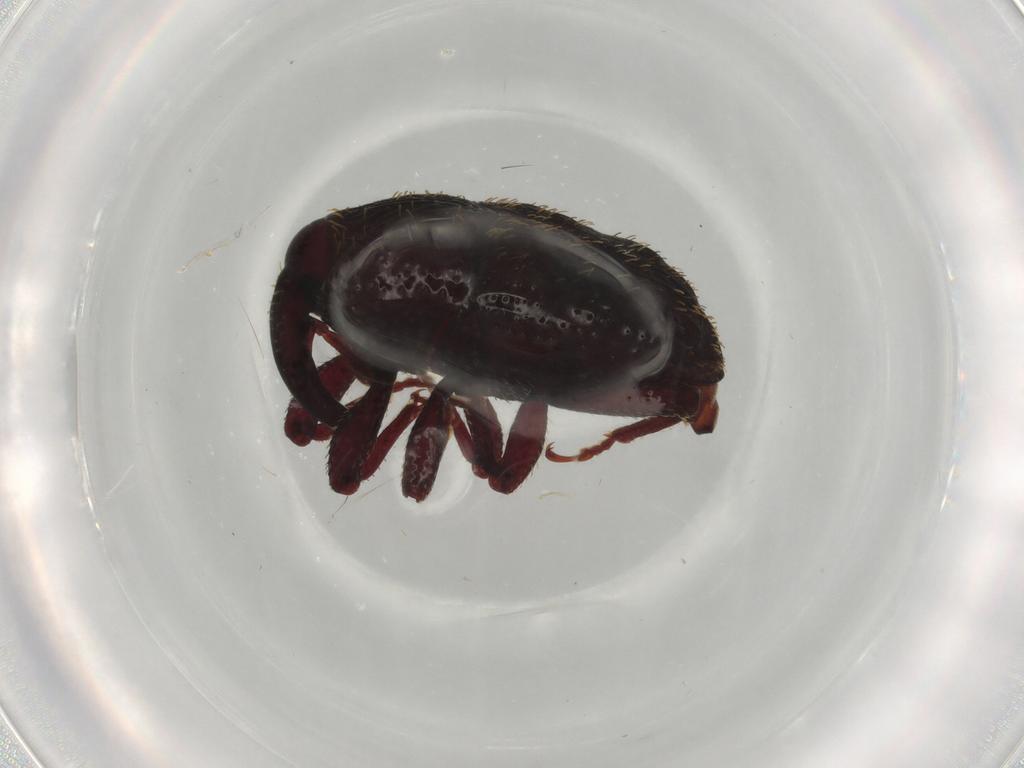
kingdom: Animalia
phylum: Arthropoda
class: Insecta
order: Coleoptera
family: Curculionidae
